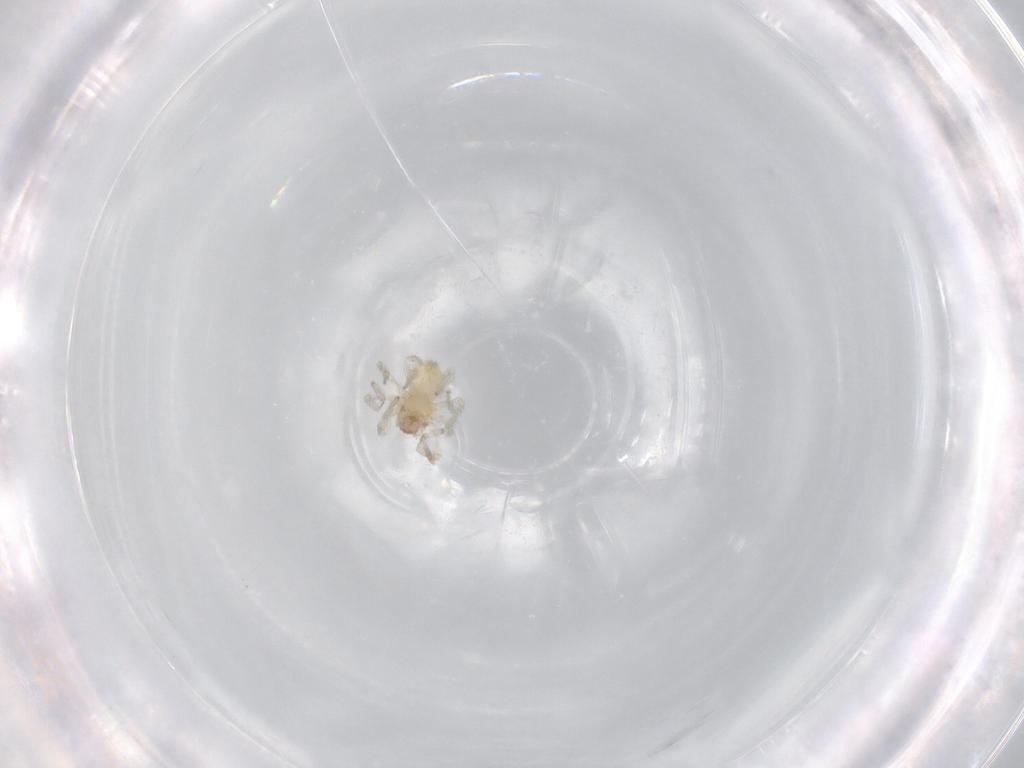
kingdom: Animalia
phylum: Arthropoda
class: Arachnida
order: Araneae
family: Dictynidae
